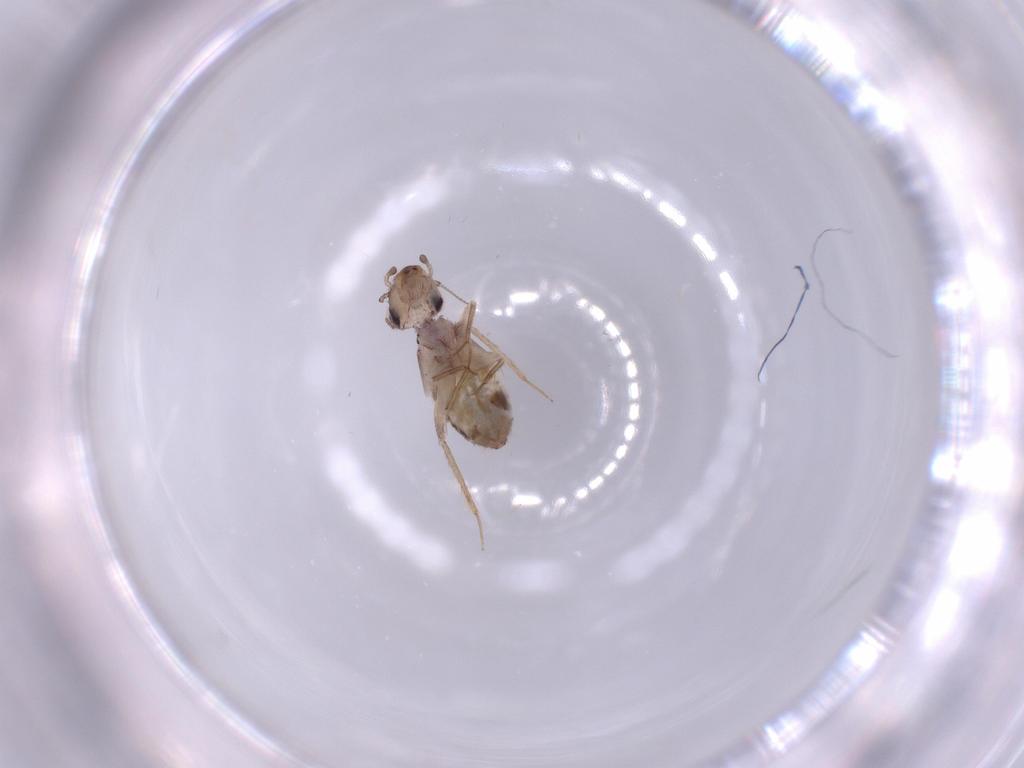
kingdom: Animalia
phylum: Arthropoda
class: Insecta
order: Psocodea
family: Lepidopsocidae
